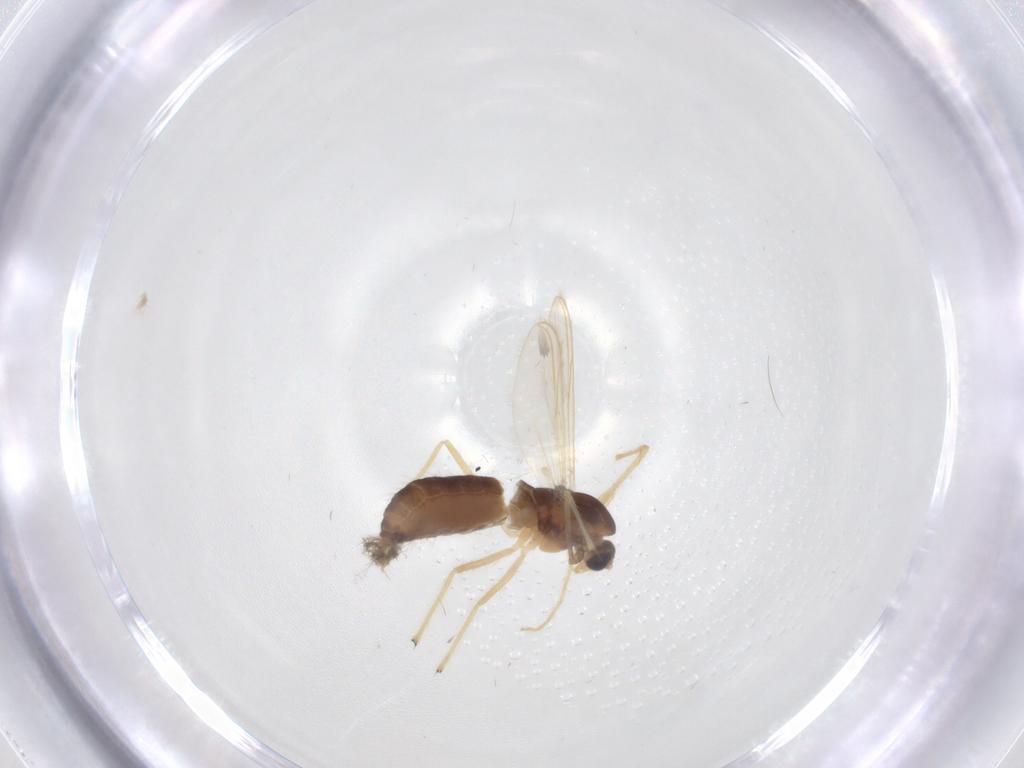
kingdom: Animalia
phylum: Arthropoda
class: Insecta
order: Diptera
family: Chironomidae
